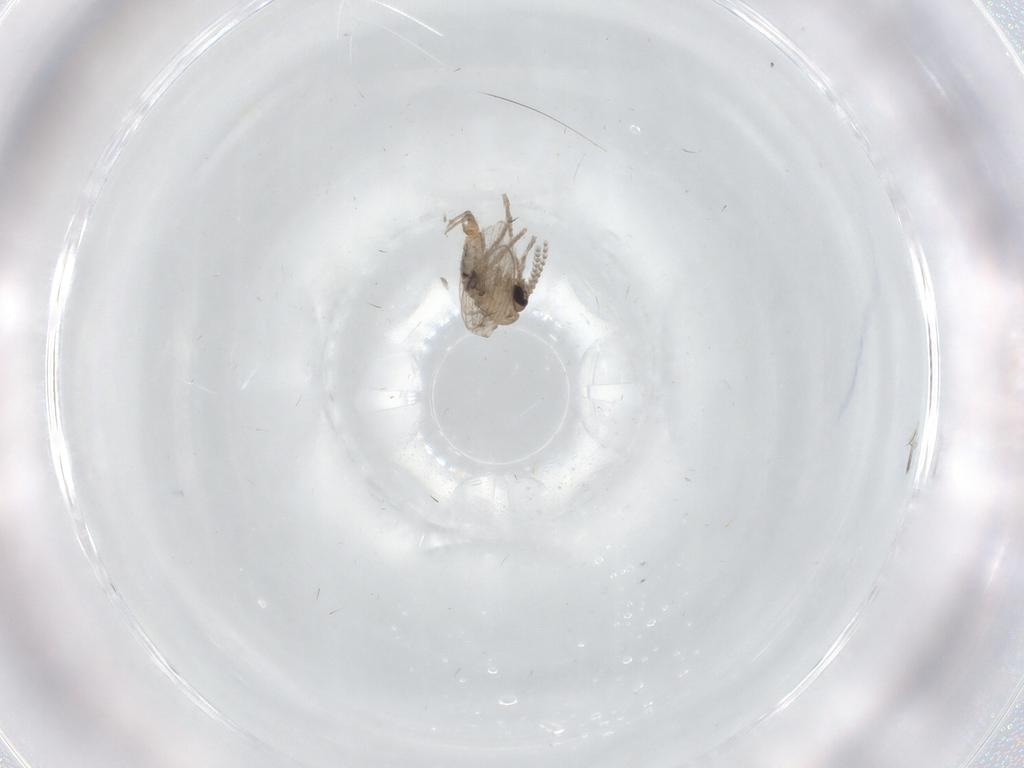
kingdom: Animalia
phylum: Arthropoda
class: Insecta
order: Diptera
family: Psychodidae
